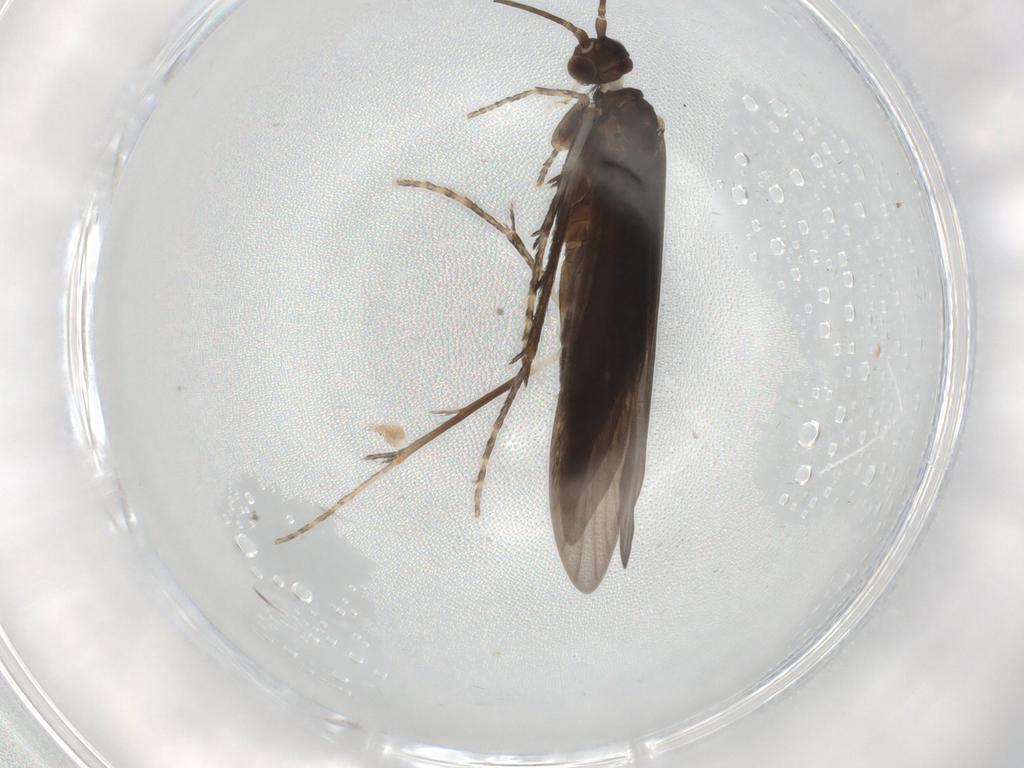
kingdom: Animalia
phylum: Arthropoda
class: Insecta
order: Trichoptera
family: Xiphocentronidae
